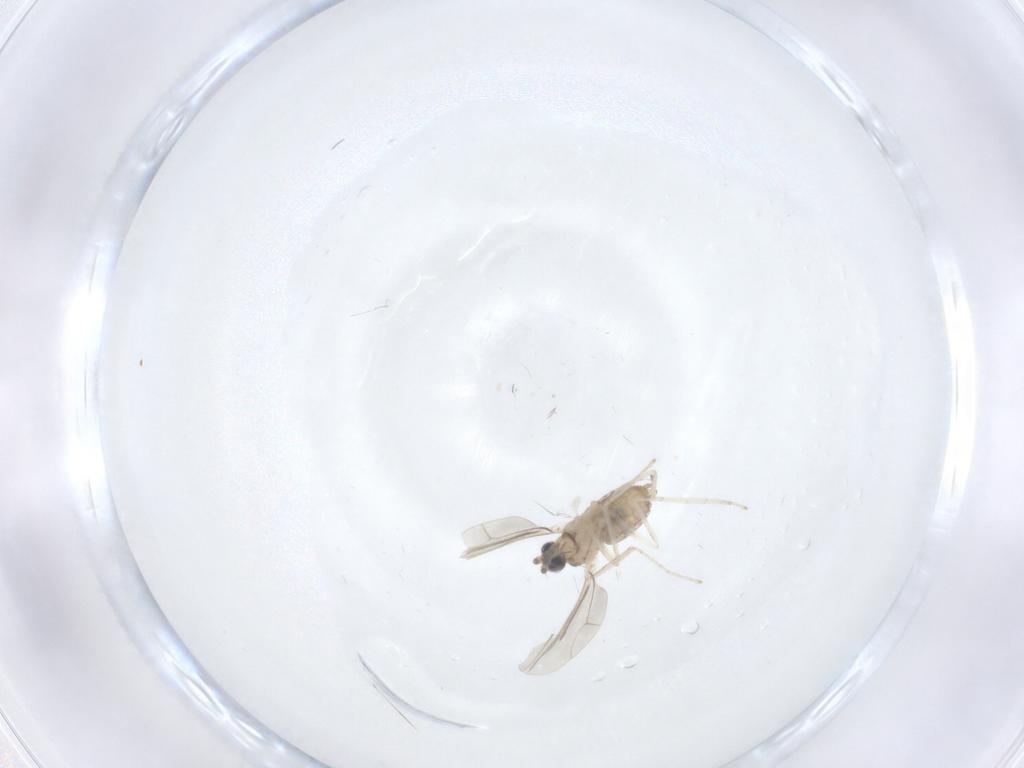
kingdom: Animalia
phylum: Arthropoda
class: Insecta
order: Diptera
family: Cecidomyiidae
